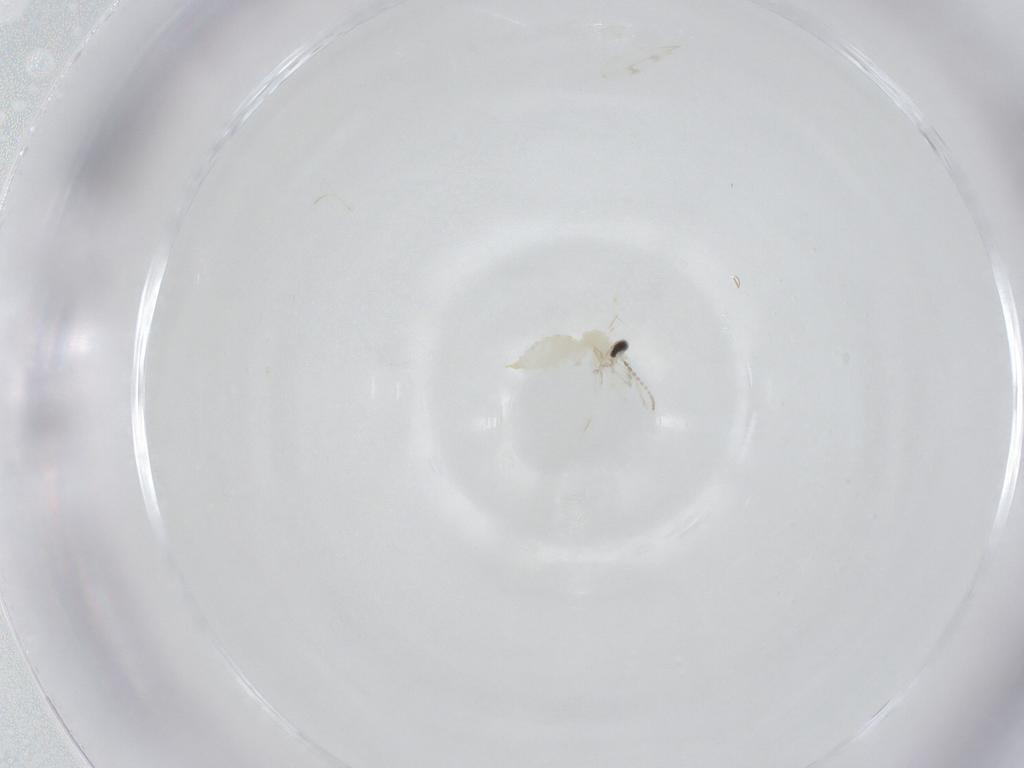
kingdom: Animalia
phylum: Arthropoda
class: Insecta
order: Diptera
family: Cecidomyiidae
